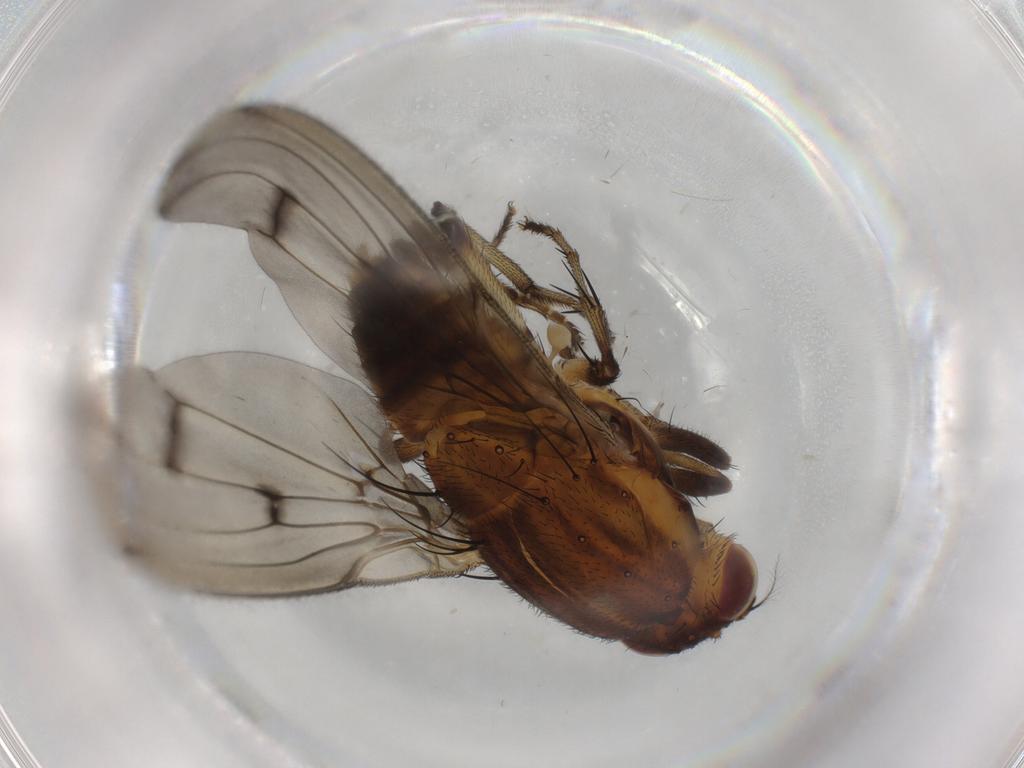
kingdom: Animalia
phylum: Arthropoda
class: Insecta
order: Diptera
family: Heleomyzidae
